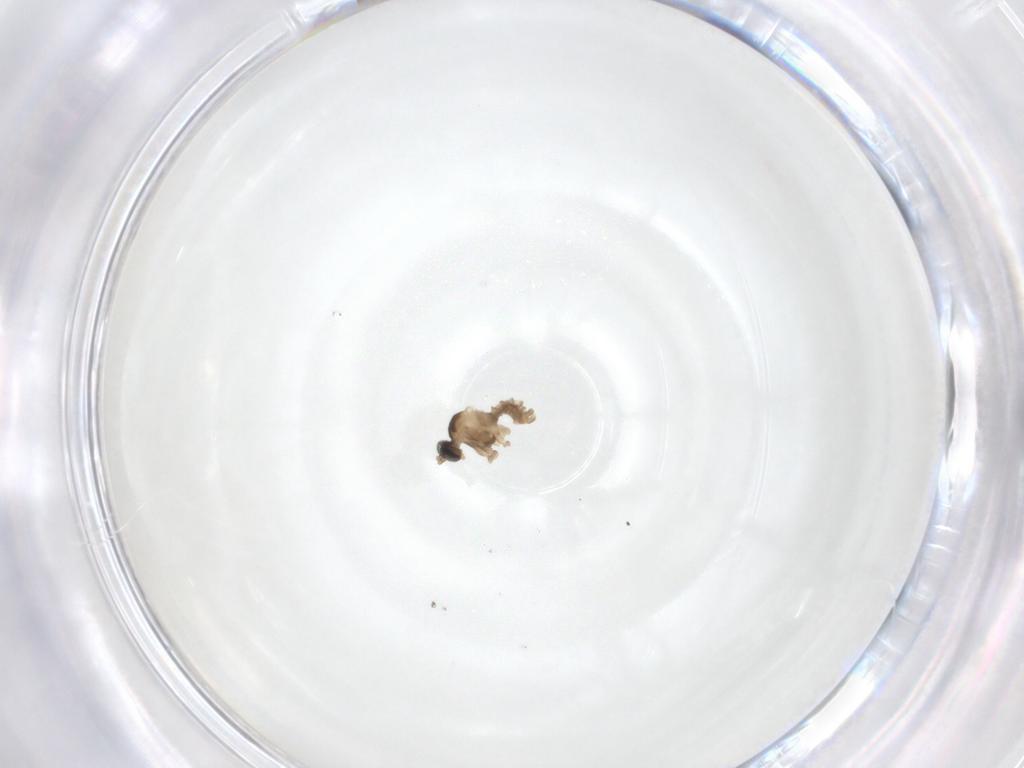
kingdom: Animalia
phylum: Arthropoda
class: Insecta
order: Diptera
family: Cecidomyiidae
